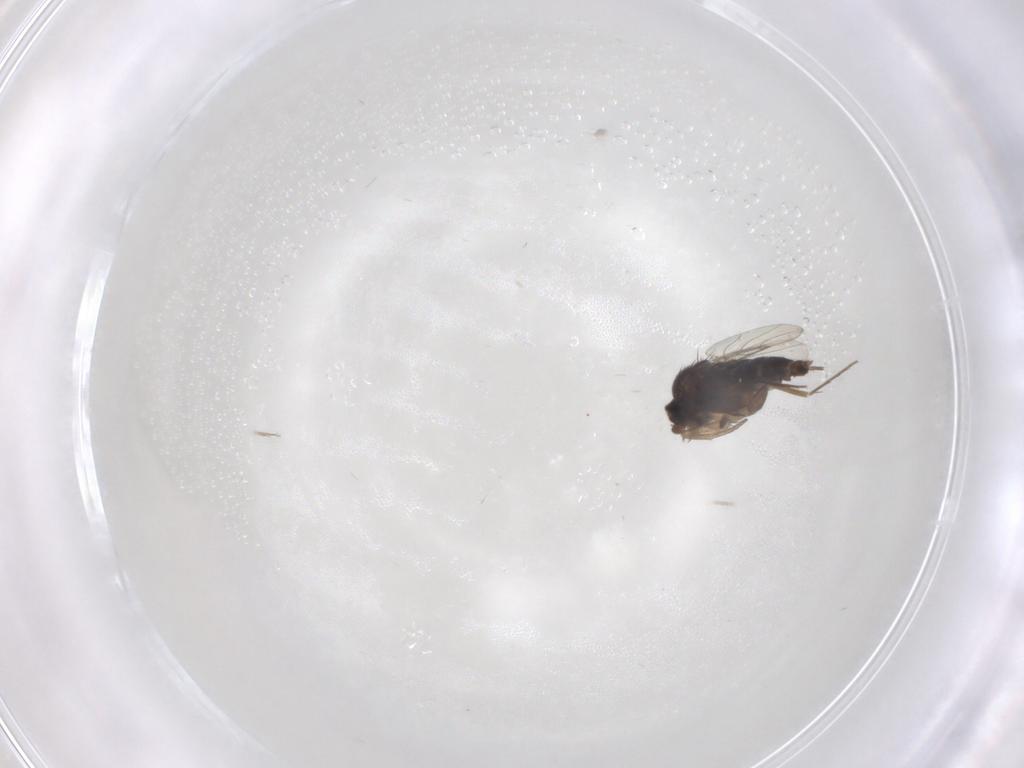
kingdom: Animalia
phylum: Arthropoda
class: Insecta
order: Diptera
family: Phoridae
